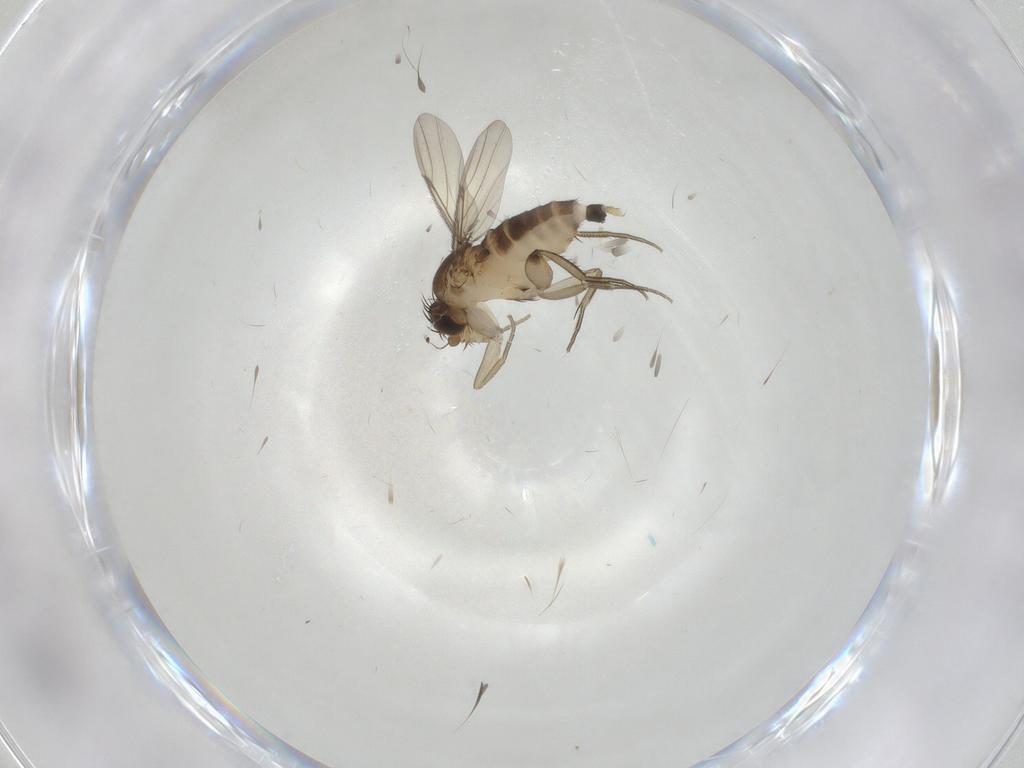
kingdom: Animalia
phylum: Arthropoda
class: Insecta
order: Diptera
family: Phoridae
